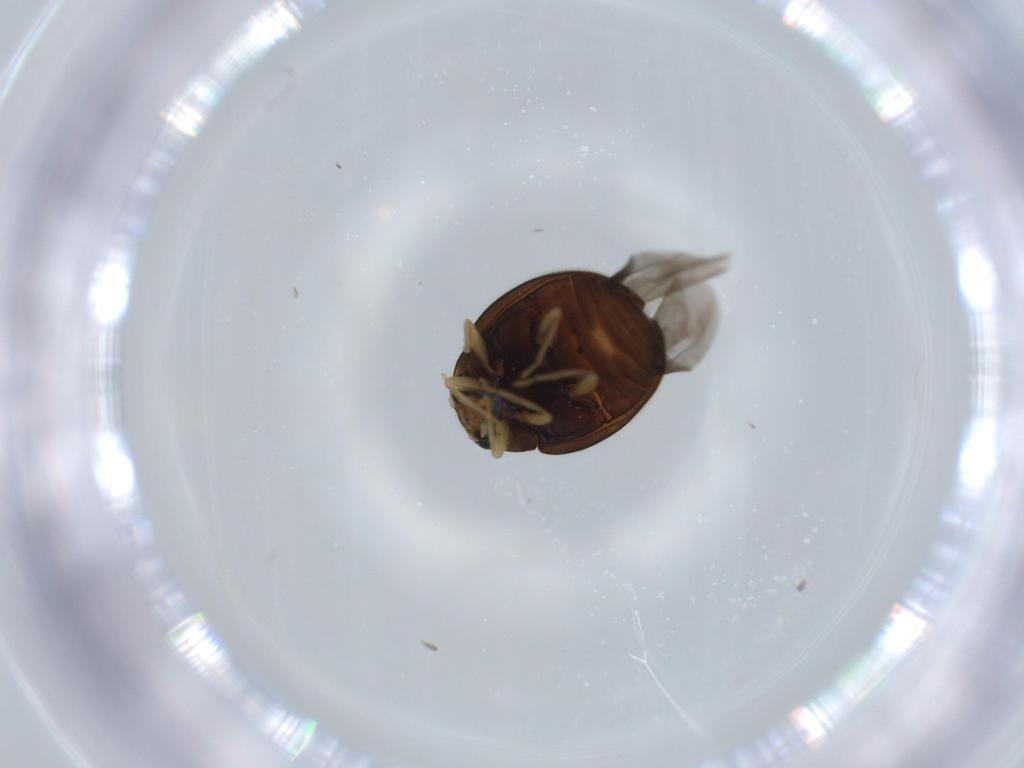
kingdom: Animalia
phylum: Arthropoda
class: Insecta
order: Coleoptera
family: Coccinellidae
